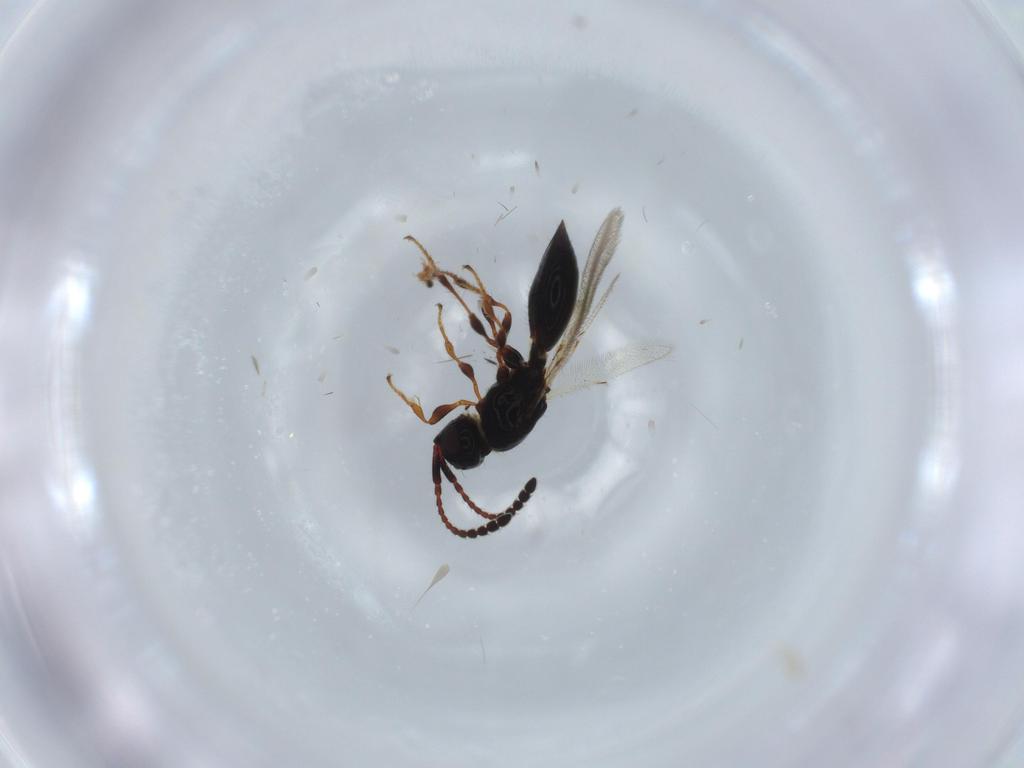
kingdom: Animalia
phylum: Arthropoda
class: Insecta
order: Hymenoptera
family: Diapriidae
